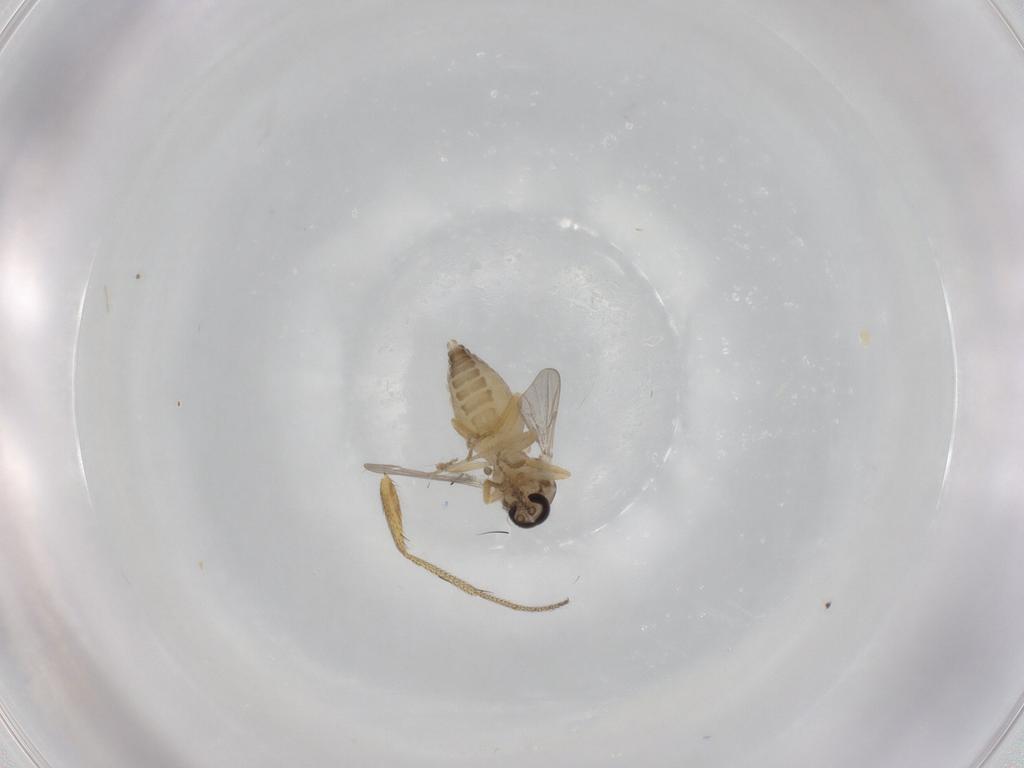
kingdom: Animalia
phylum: Arthropoda
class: Insecta
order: Diptera
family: Ceratopogonidae
